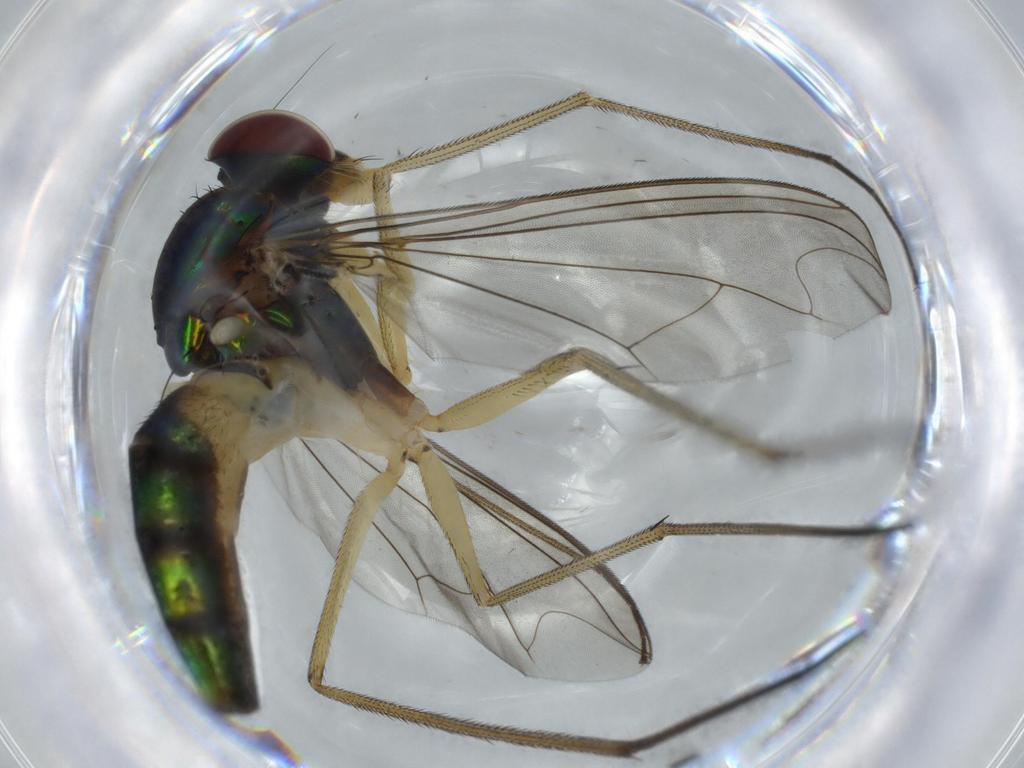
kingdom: Animalia
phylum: Arthropoda
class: Insecta
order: Diptera
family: Dolichopodidae
